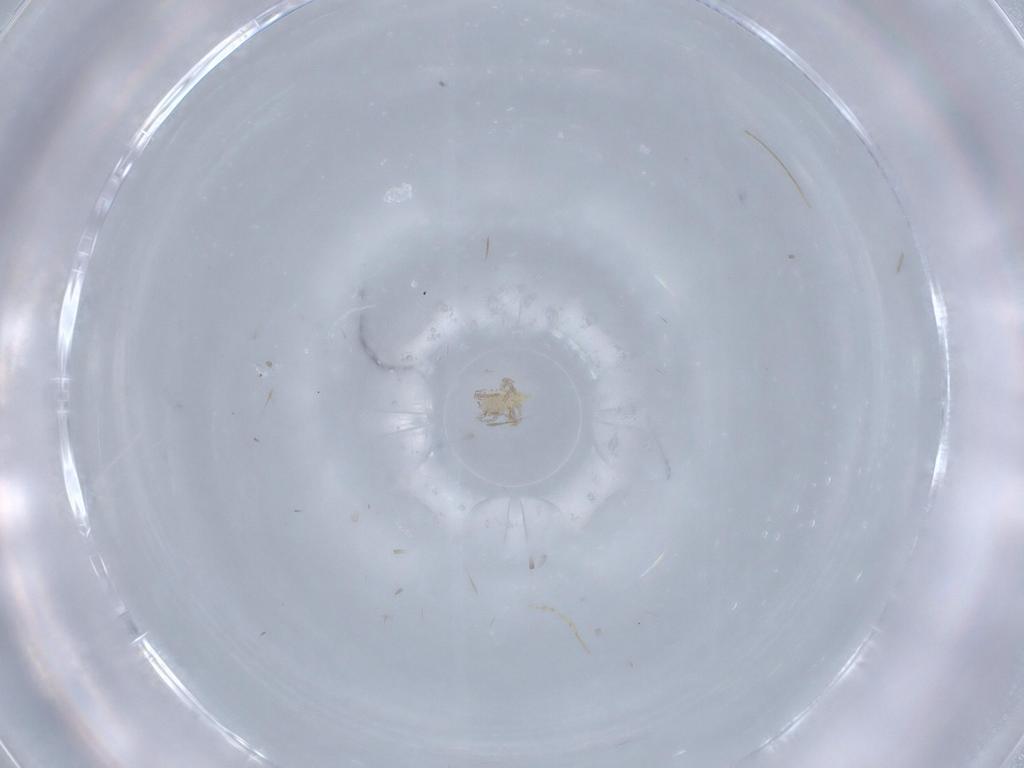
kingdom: Animalia
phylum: Arthropoda
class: Arachnida
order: Trombidiformes
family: Erythraeidae
